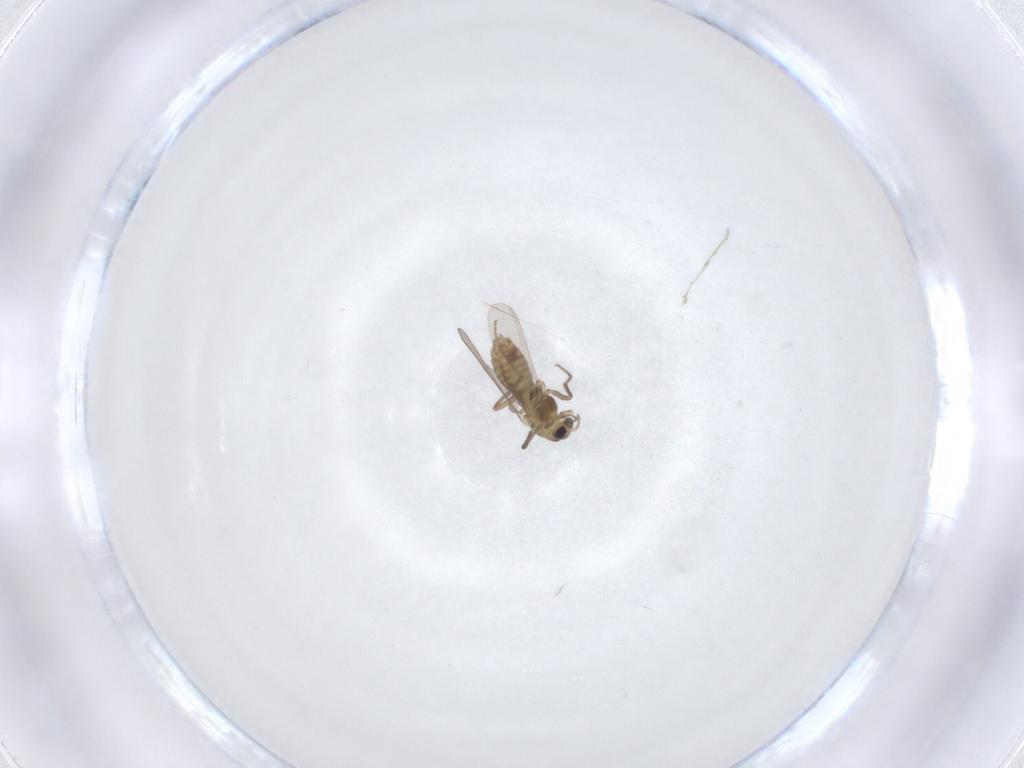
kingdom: Animalia
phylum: Arthropoda
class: Insecta
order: Diptera
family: Chironomidae
